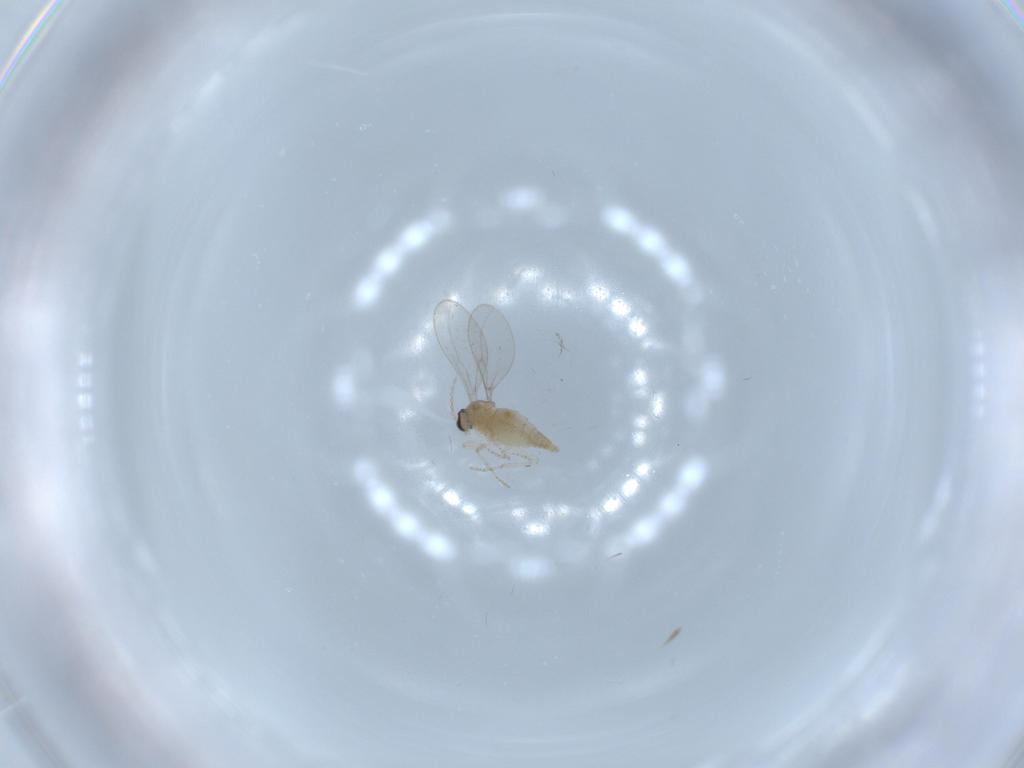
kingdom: Animalia
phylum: Arthropoda
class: Insecta
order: Diptera
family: Cecidomyiidae
